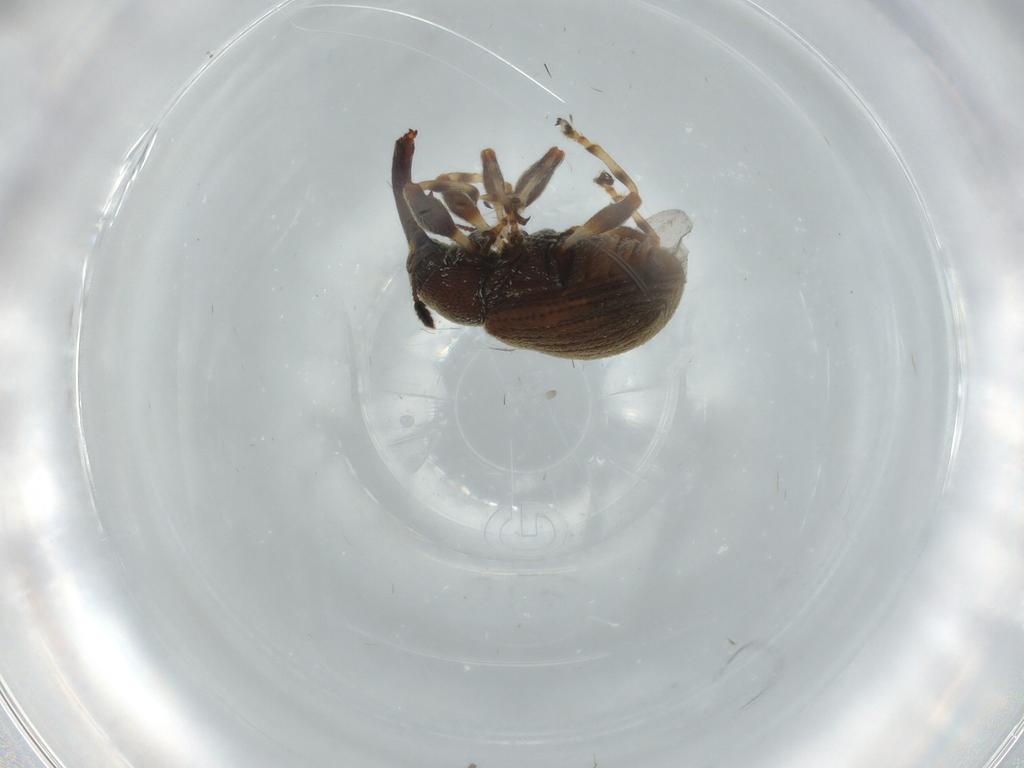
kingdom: Animalia
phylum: Arthropoda
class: Insecta
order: Coleoptera
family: Curculionidae
